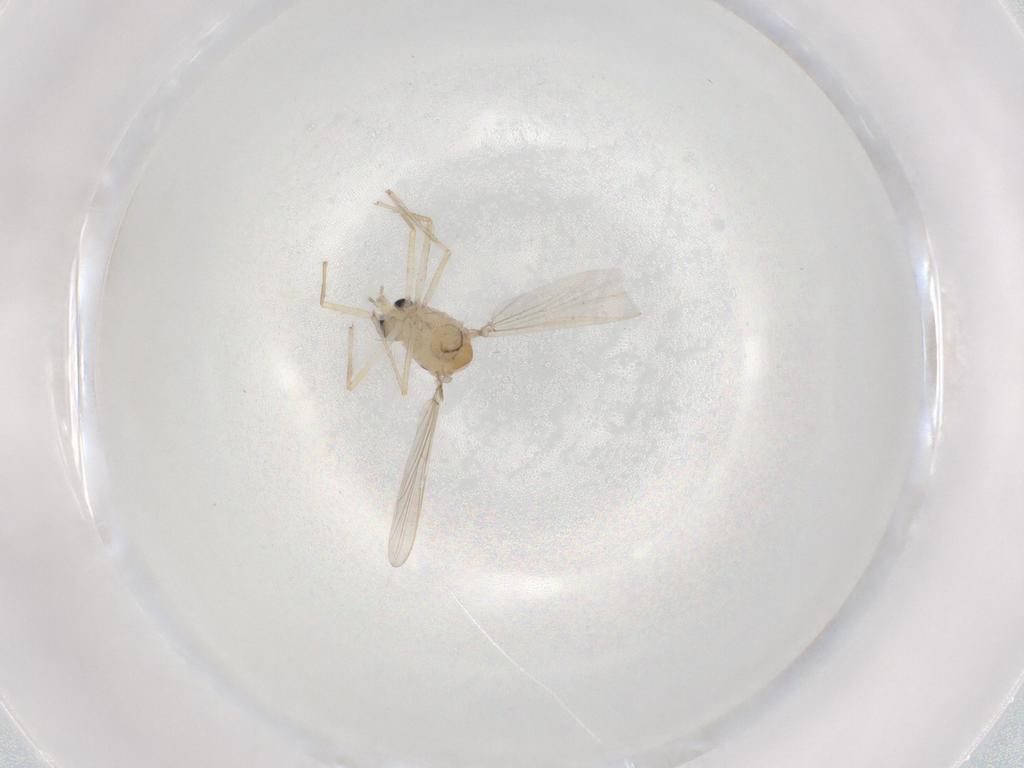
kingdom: Animalia
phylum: Arthropoda
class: Insecta
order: Diptera
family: Chironomidae
